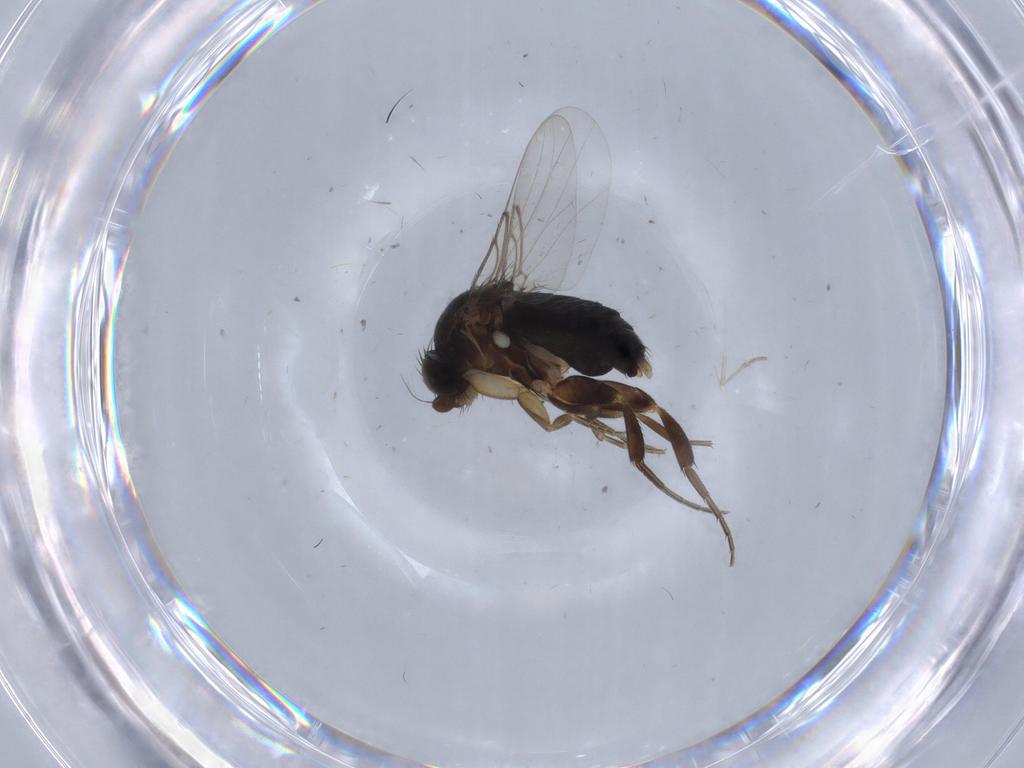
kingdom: Animalia
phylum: Arthropoda
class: Insecta
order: Diptera
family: Phoridae
